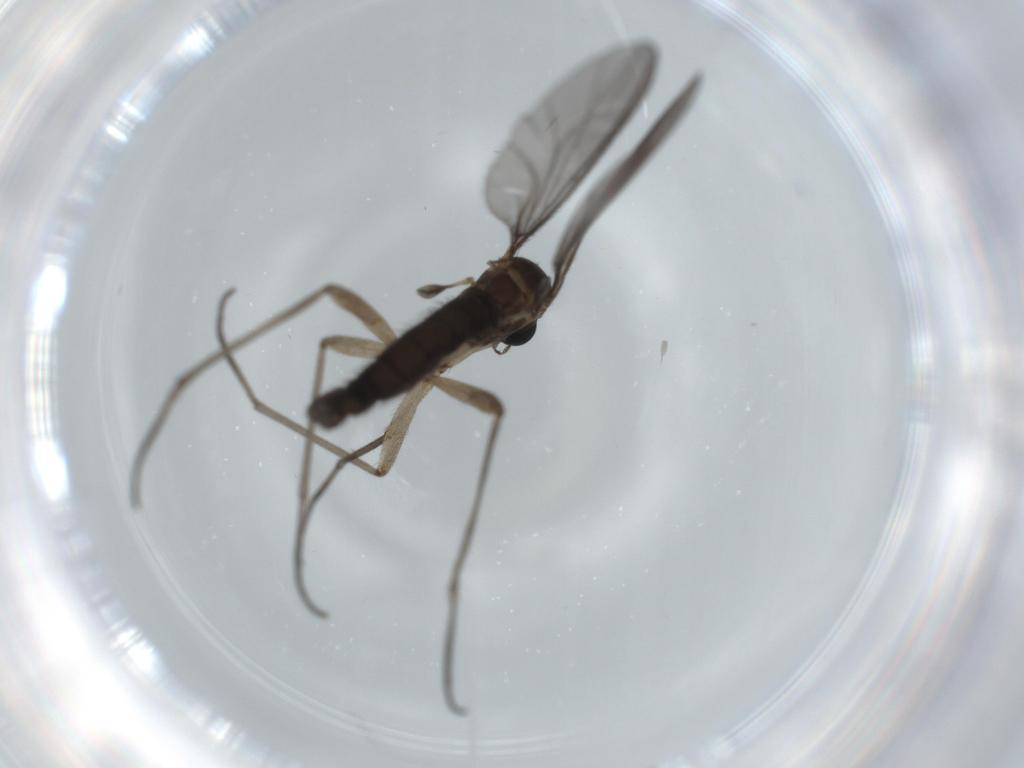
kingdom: Animalia
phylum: Arthropoda
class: Insecta
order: Diptera
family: Sciaridae
